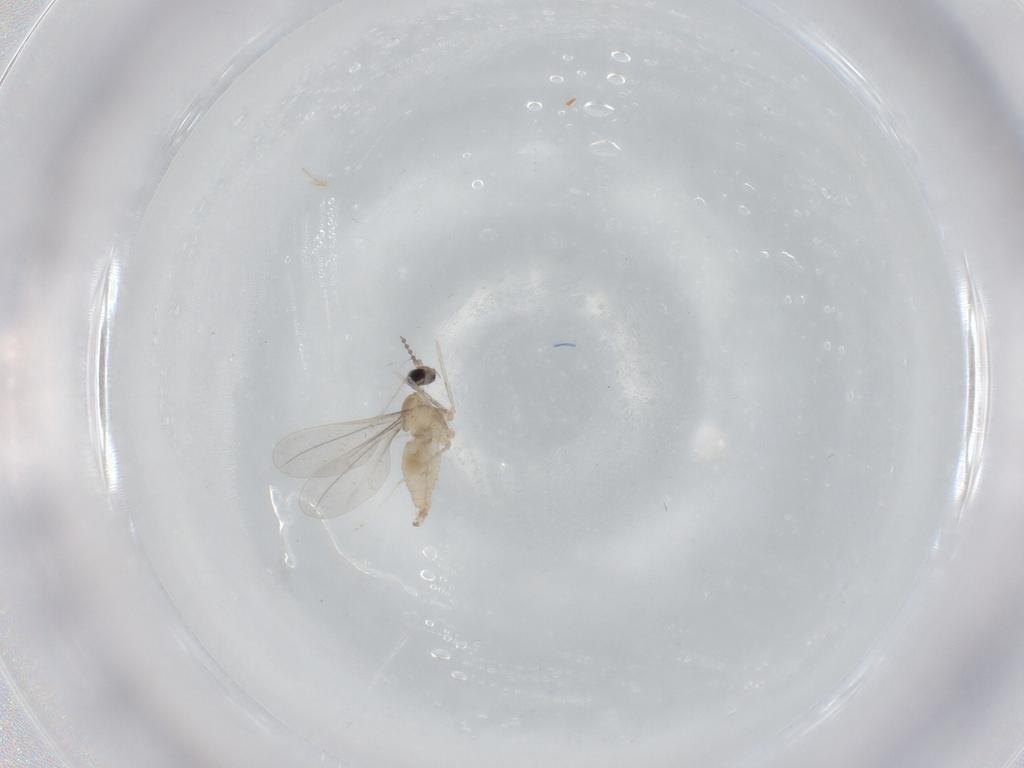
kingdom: Animalia
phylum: Arthropoda
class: Insecta
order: Diptera
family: Cecidomyiidae
